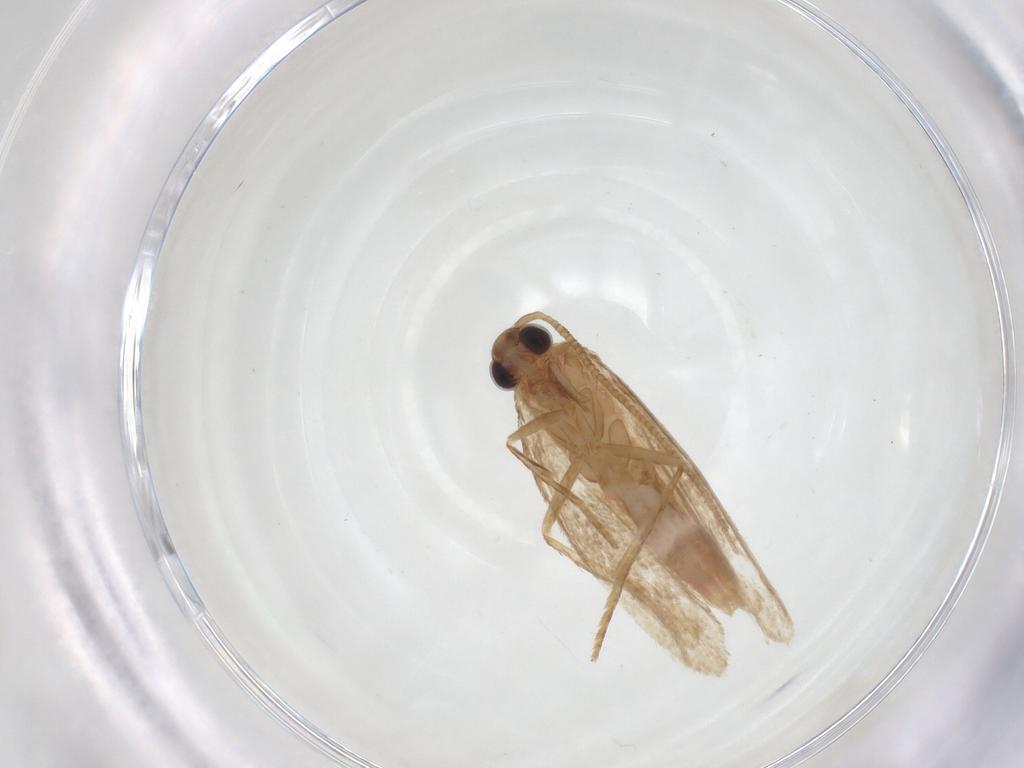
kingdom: Animalia
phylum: Arthropoda
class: Insecta
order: Lepidoptera
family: Autostichidae
